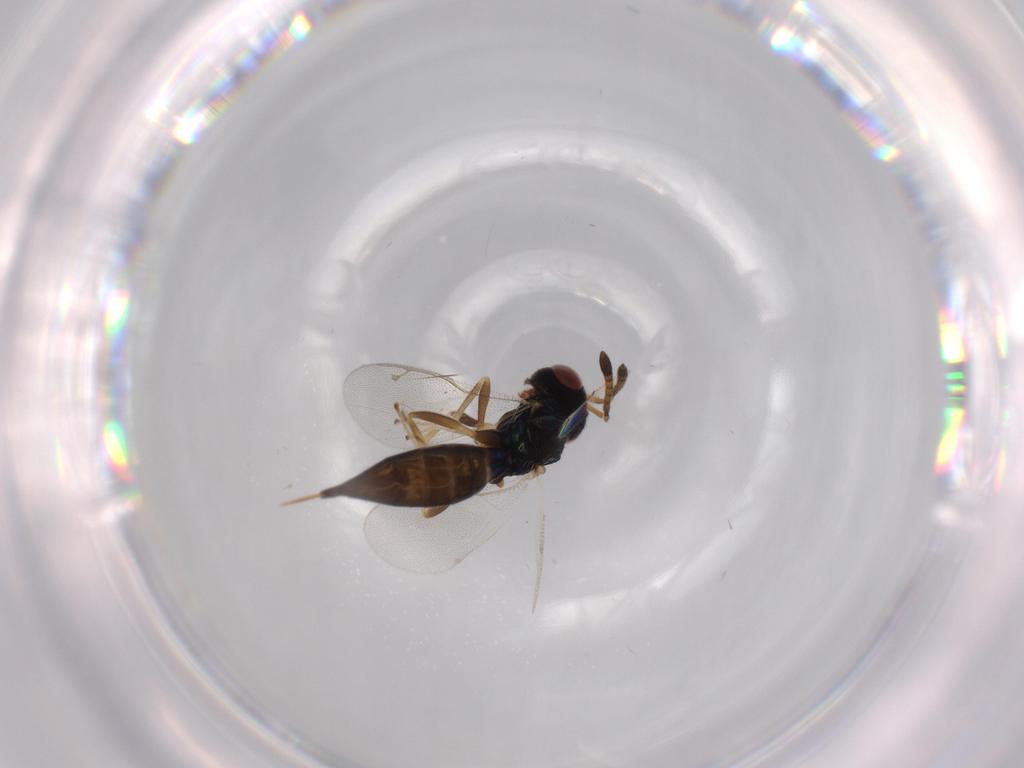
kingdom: Animalia
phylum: Arthropoda
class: Insecta
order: Hymenoptera
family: Pteromalidae
